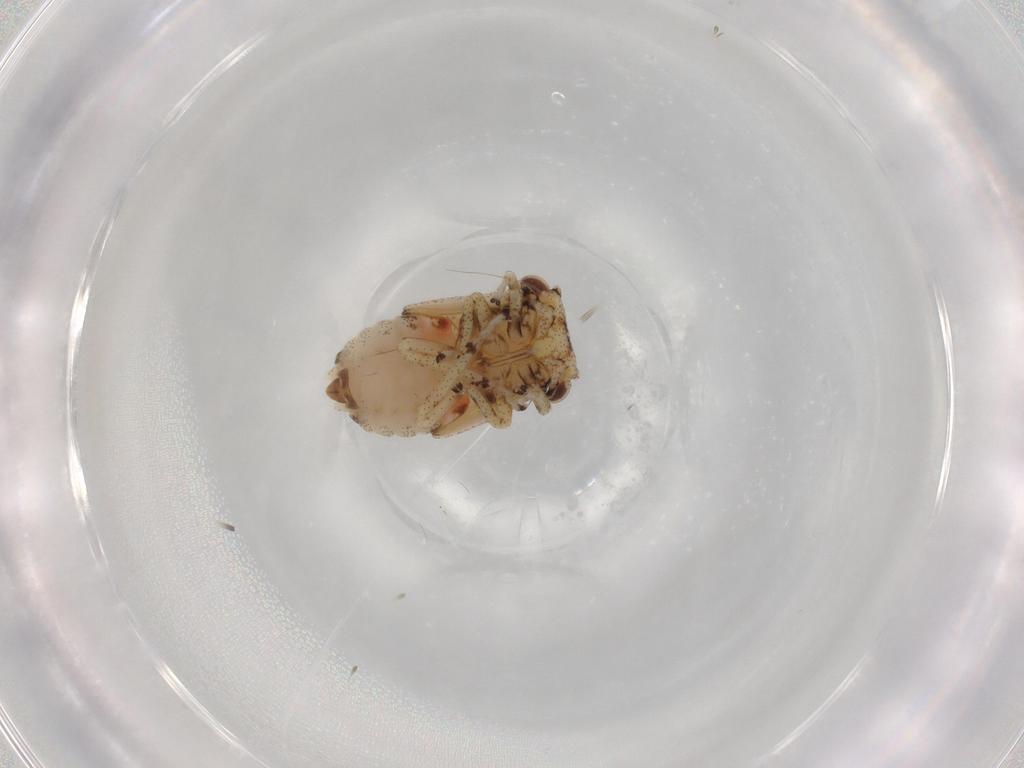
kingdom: Animalia
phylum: Arthropoda
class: Insecta
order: Hemiptera
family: Cicadellidae
